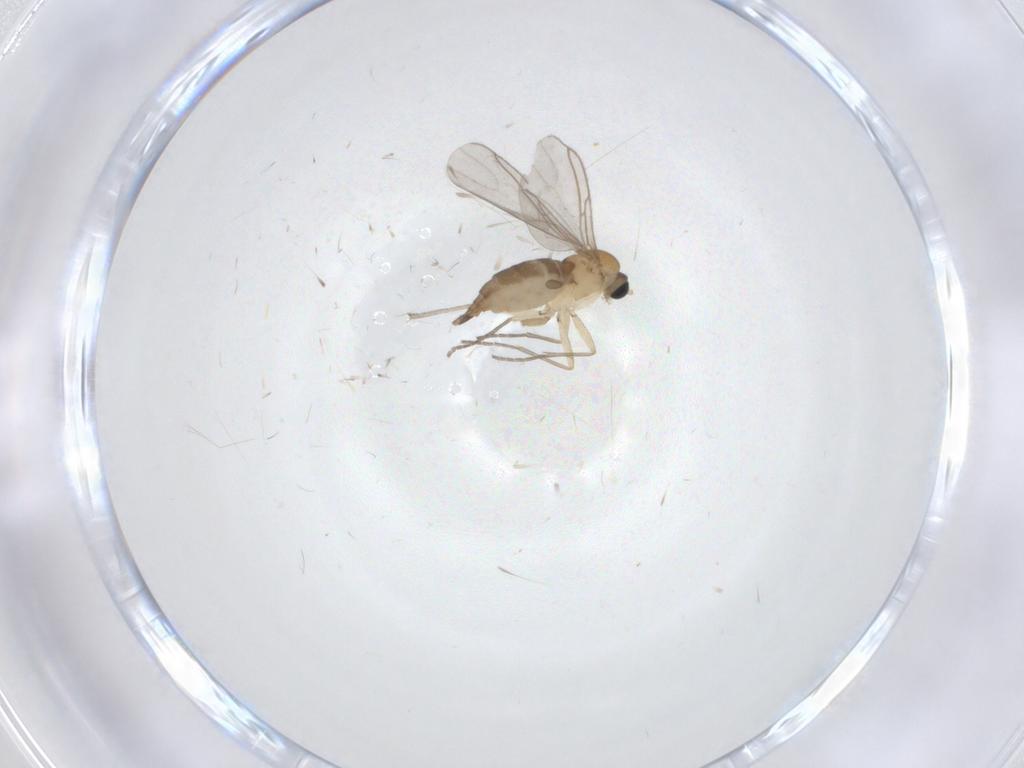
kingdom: Animalia
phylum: Arthropoda
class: Insecta
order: Diptera
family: Sciaridae
